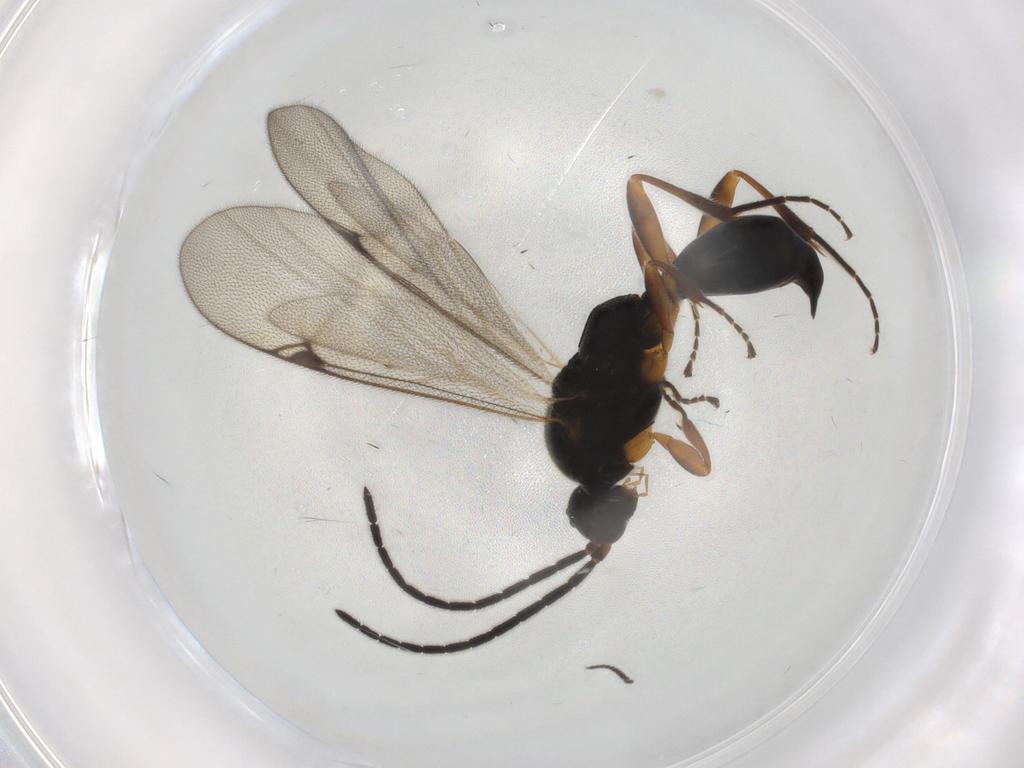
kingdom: Animalia
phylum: Arthropoda
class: Insecta
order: Hymenoptera
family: Proctotrupidae
